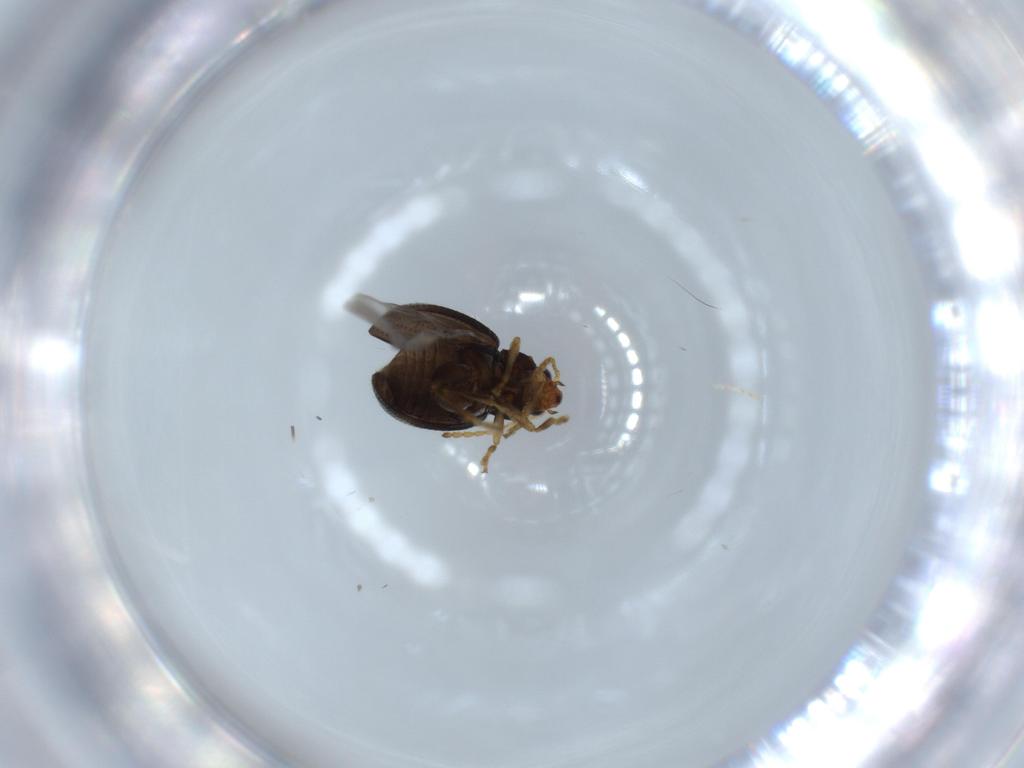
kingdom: Animalia
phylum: Arthropoda
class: Insecta
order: Coleoptera
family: Chrysomelidae
